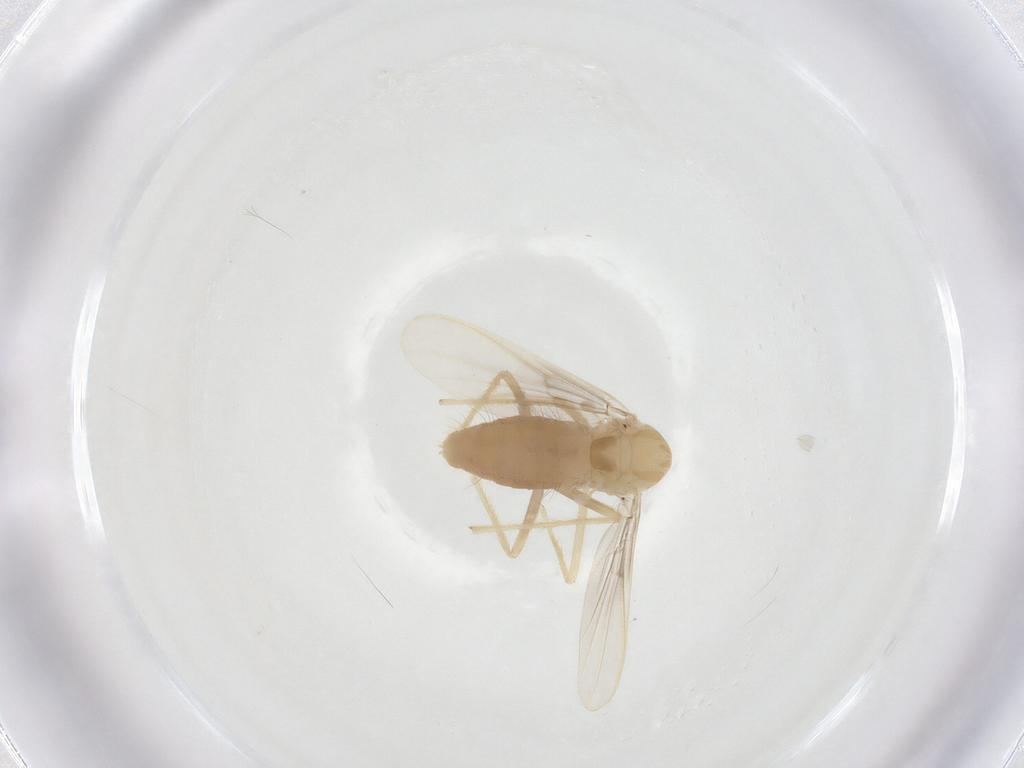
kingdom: Animalia
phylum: Arthropoda
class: Insecta
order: Diptera
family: Chironomidae
